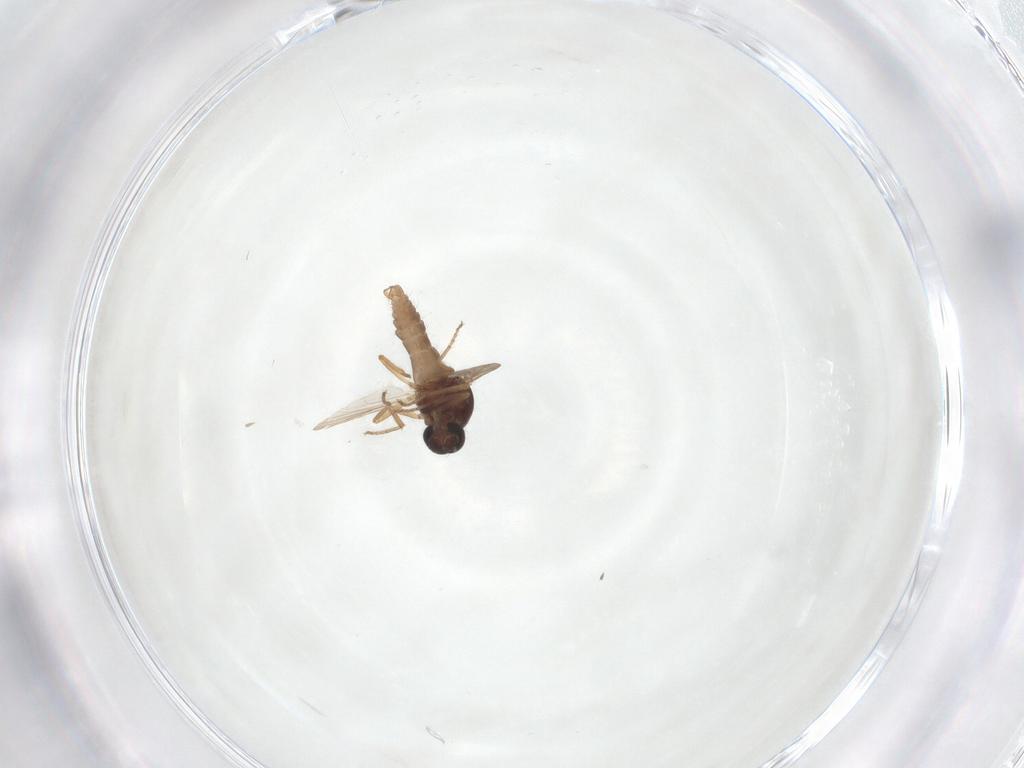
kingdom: Animalia
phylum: Arthropoda
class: Insecta
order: Diptera
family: Ceratopogonidae
